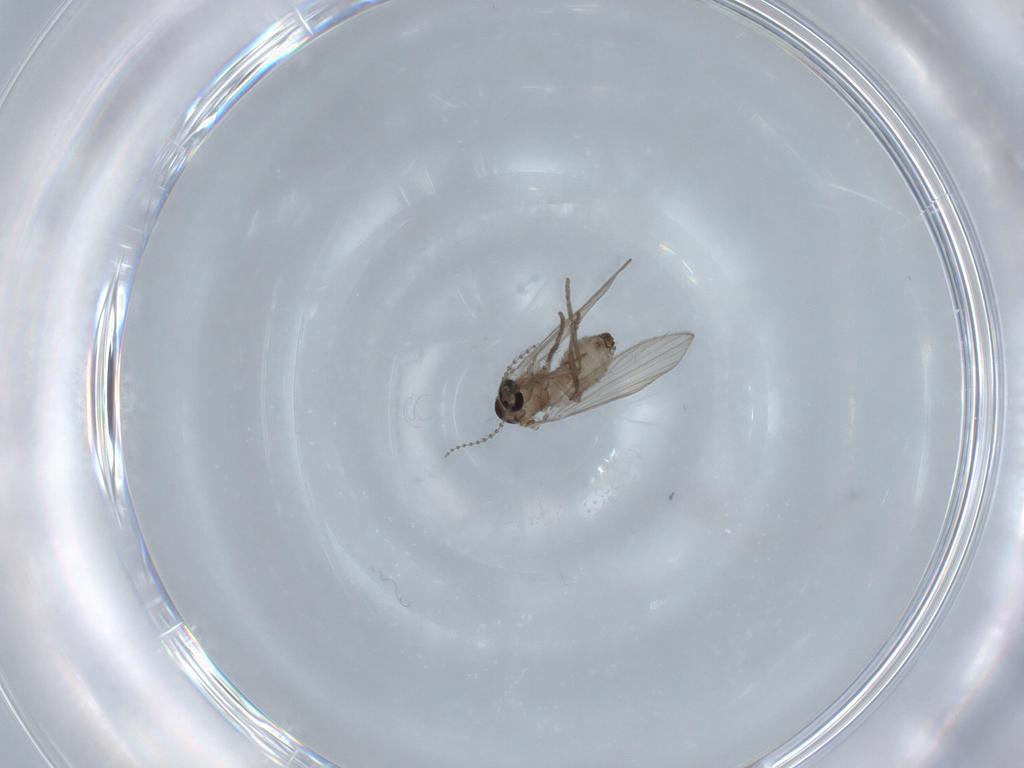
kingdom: Animalia
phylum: Arthropoda
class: Insecta
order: Diptera
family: Psychodidae
